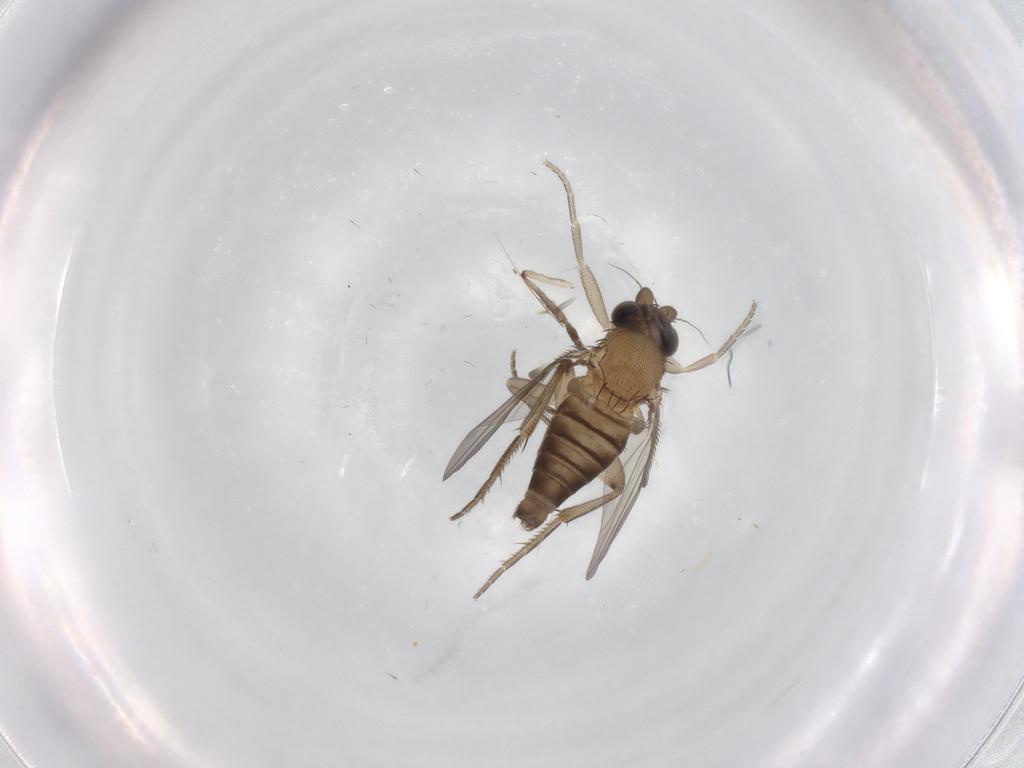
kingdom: Animalia
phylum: Arthropoda
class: Insecta
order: Diptera
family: Phoridae
